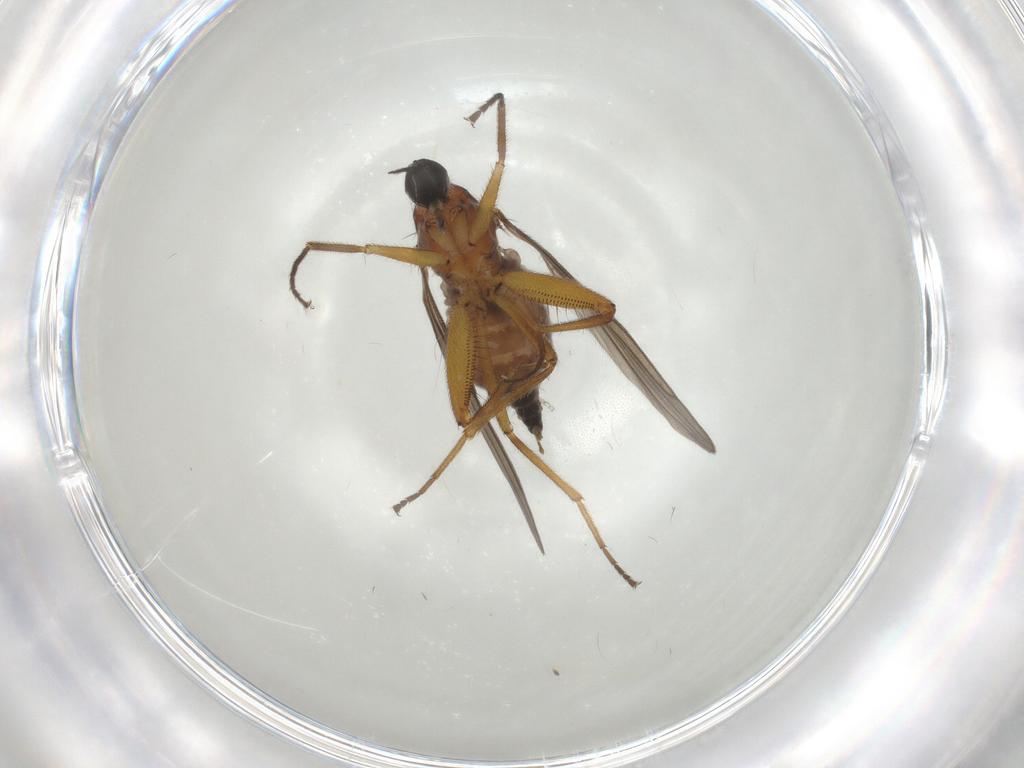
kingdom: Animalia
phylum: Arthropoda
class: Insecta
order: Diptera
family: Hybotidae
